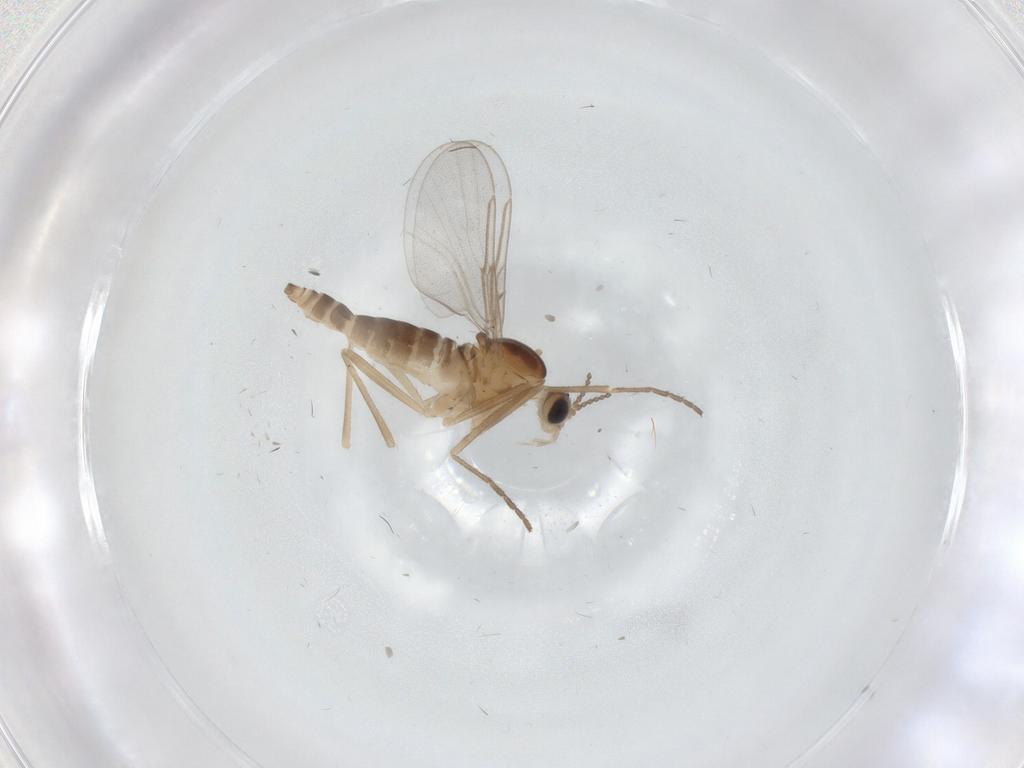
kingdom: Animalia
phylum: Arthropoda
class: Insecta
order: Diptera
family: Cecidomyiidae
